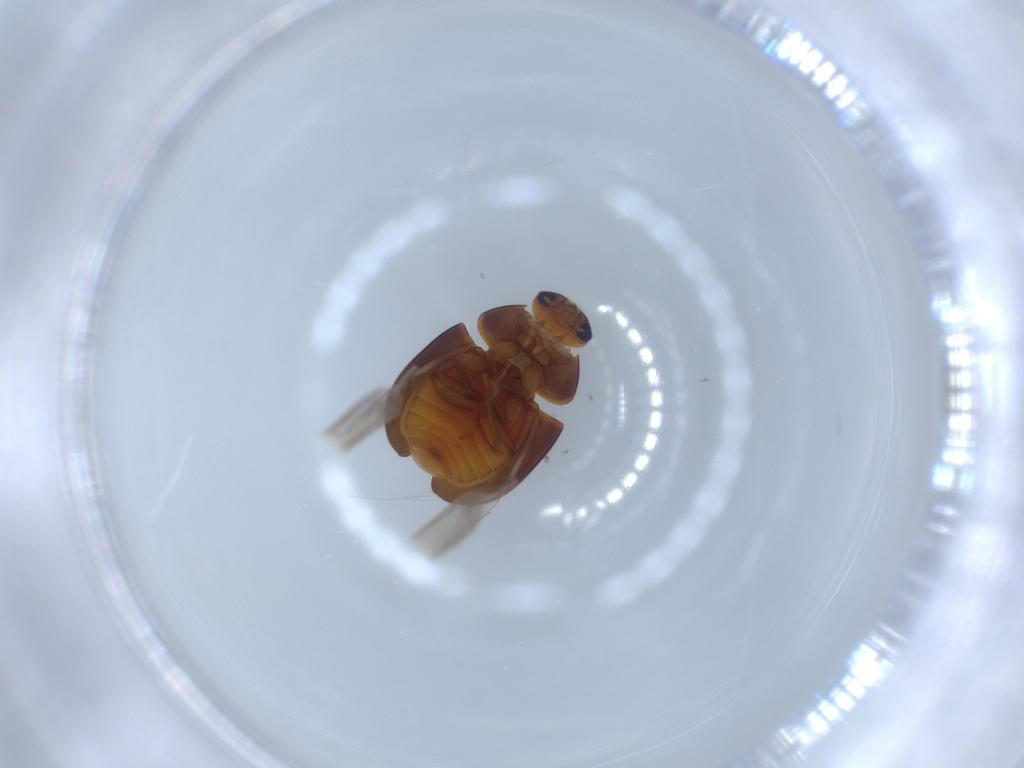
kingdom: Animalia
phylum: Arthropoda
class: Insecta
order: Coleoptera
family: Phalacridae
